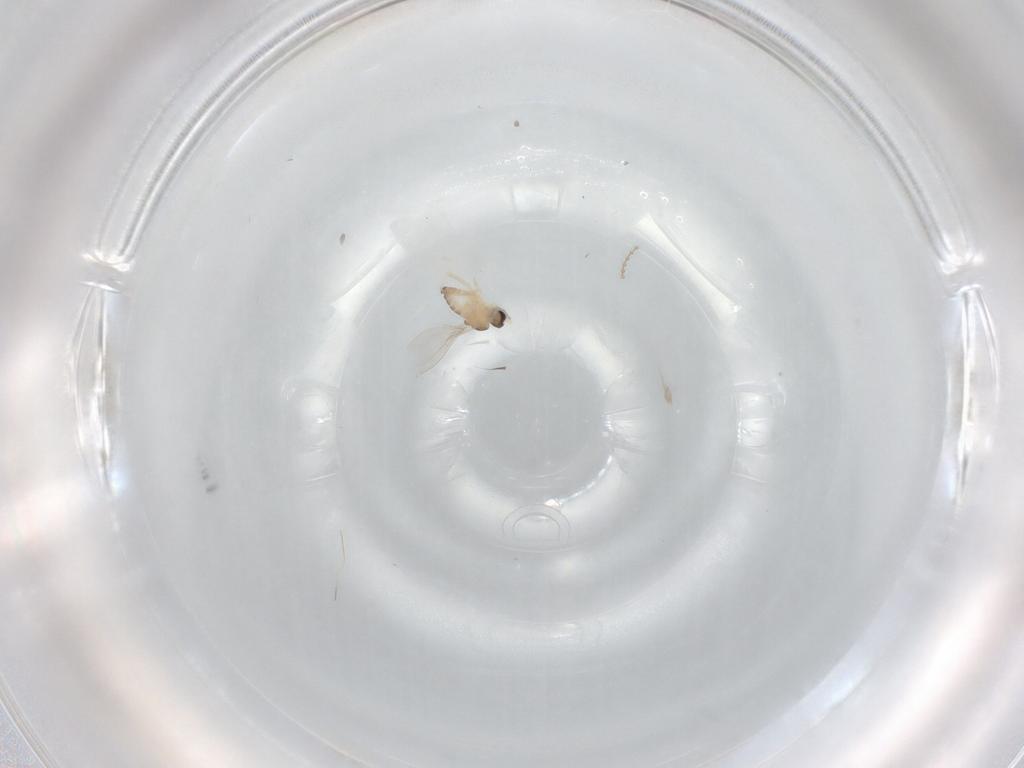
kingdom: Animalia
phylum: Arthropoda
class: Insecta
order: Diptera
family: Cecidomyiidae
